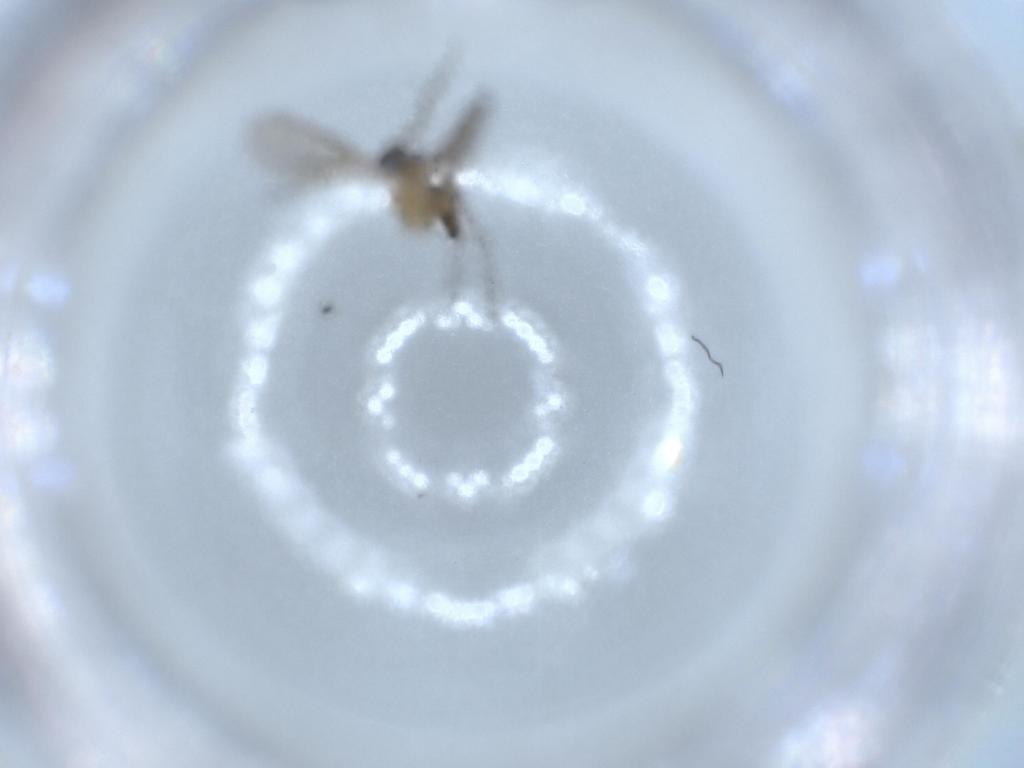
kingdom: Animalia
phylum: Arthropoda
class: Insecta
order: Diptera
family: Sciaridae
